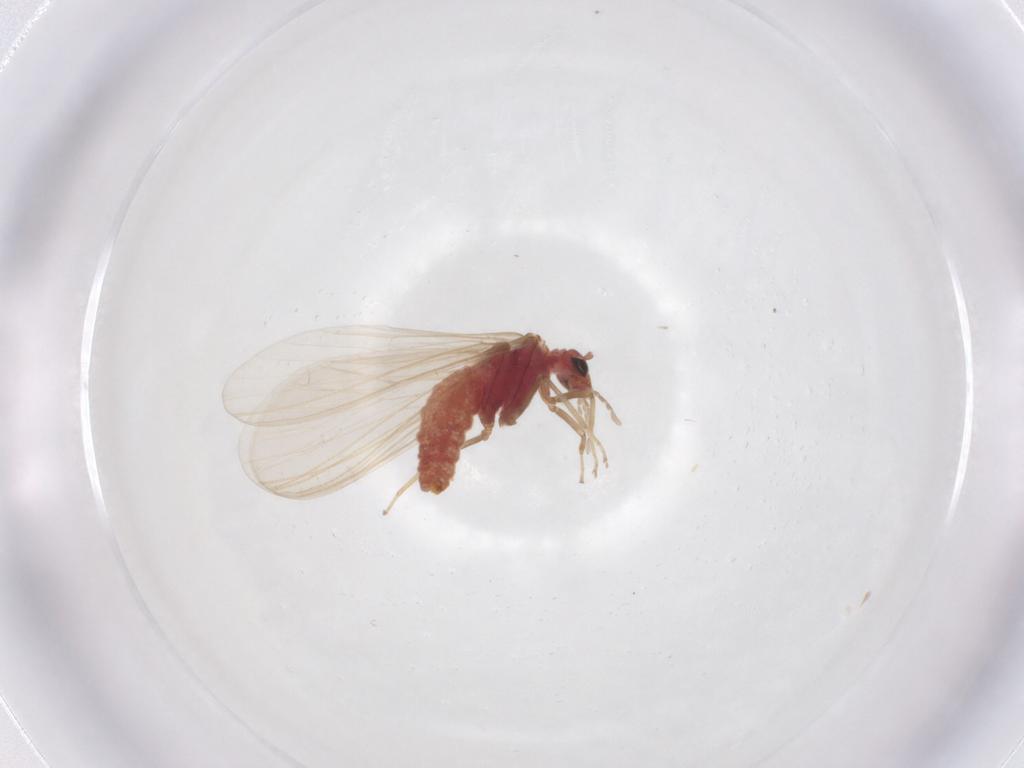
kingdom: Animalia
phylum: Arthropoda
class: Insecta
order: Neuroptera
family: Coniopterygidae
